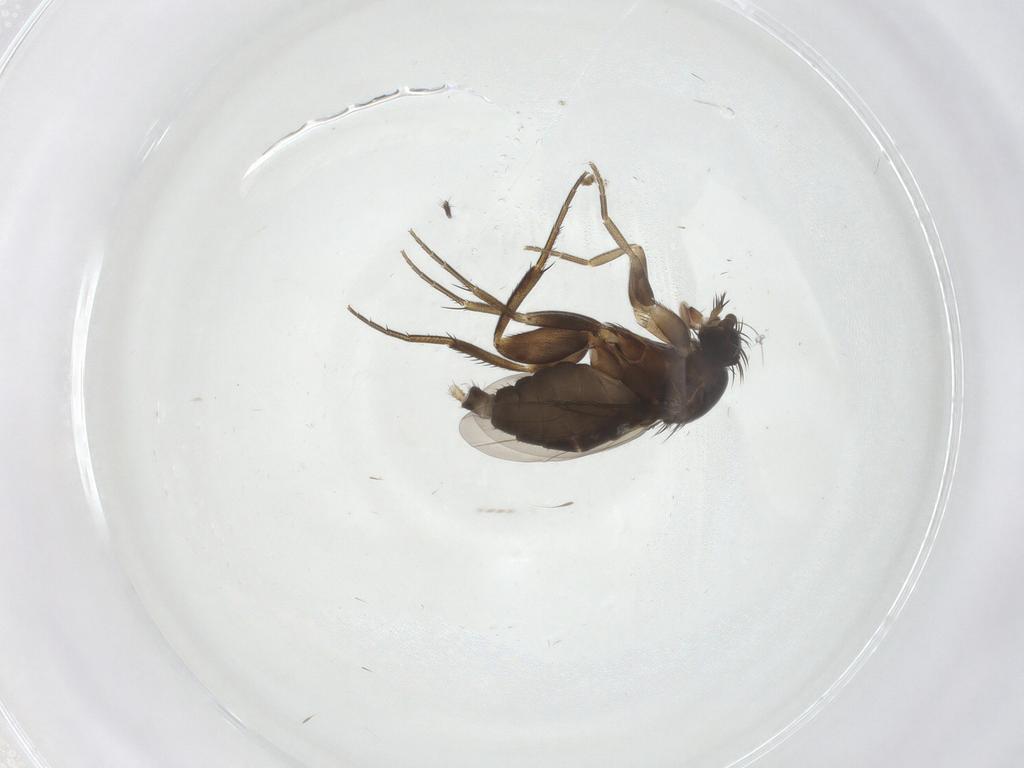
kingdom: Animalia
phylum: Arthropoda
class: Insecta
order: Diptera
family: Phoridae
